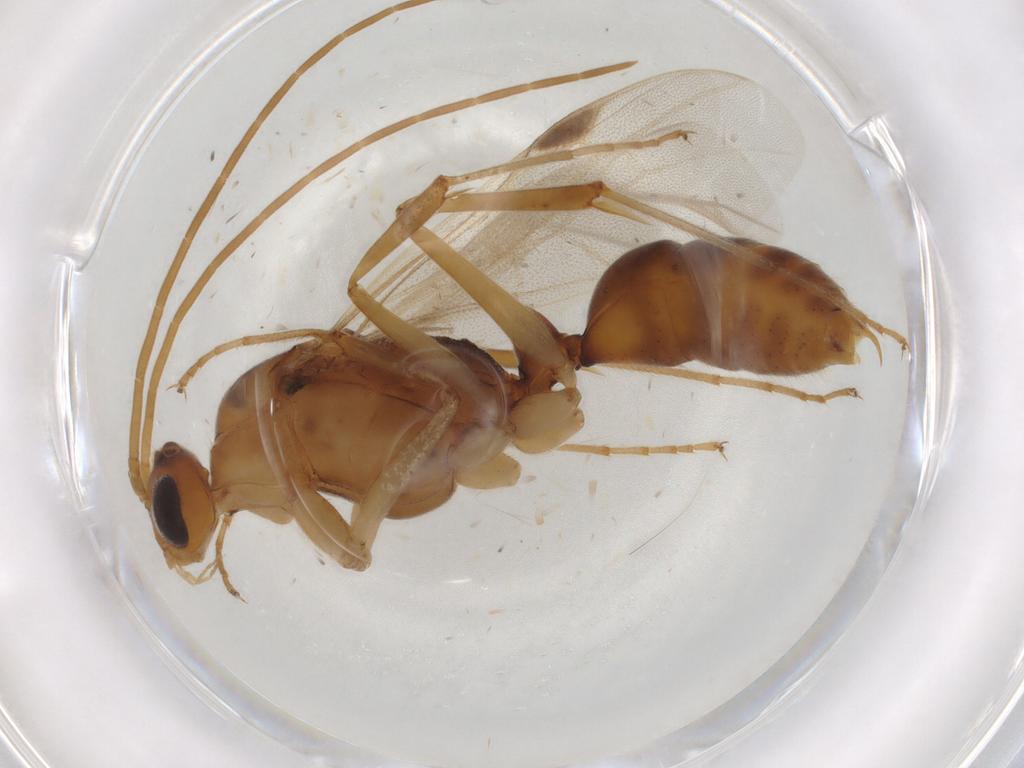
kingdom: Animalia
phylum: Arthropoda
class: Insecta
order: Hymenoptera
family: Formicidae
